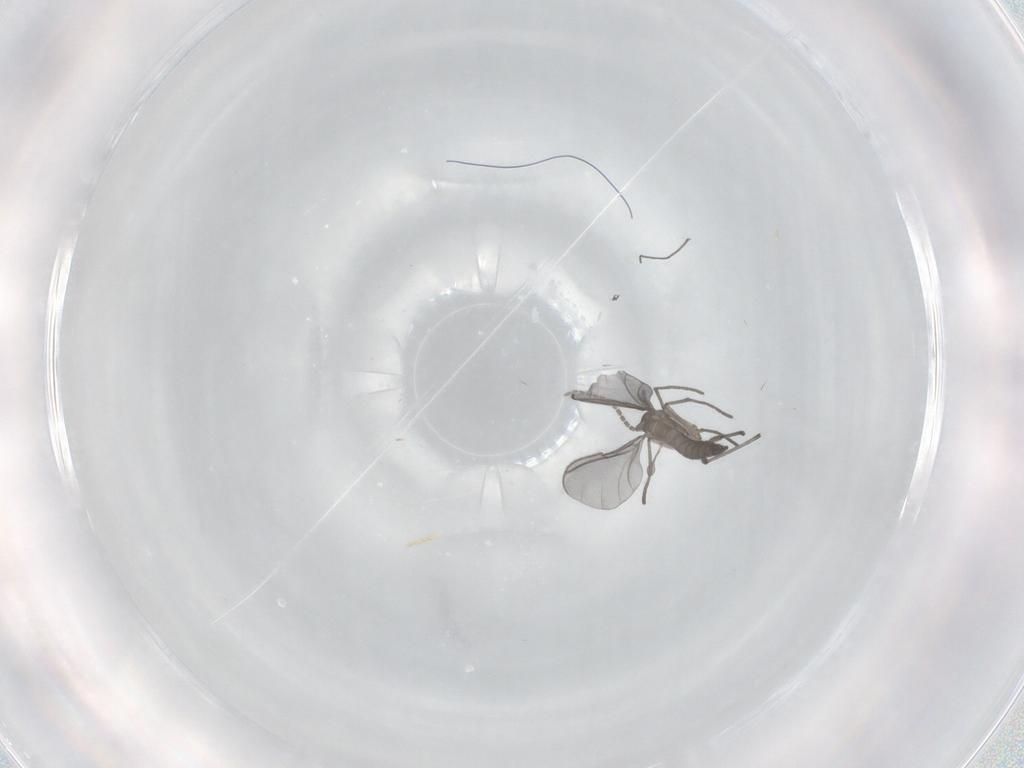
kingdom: Animalia
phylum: Arthropoda
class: Insecta
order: Diptera
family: Sciaridae
